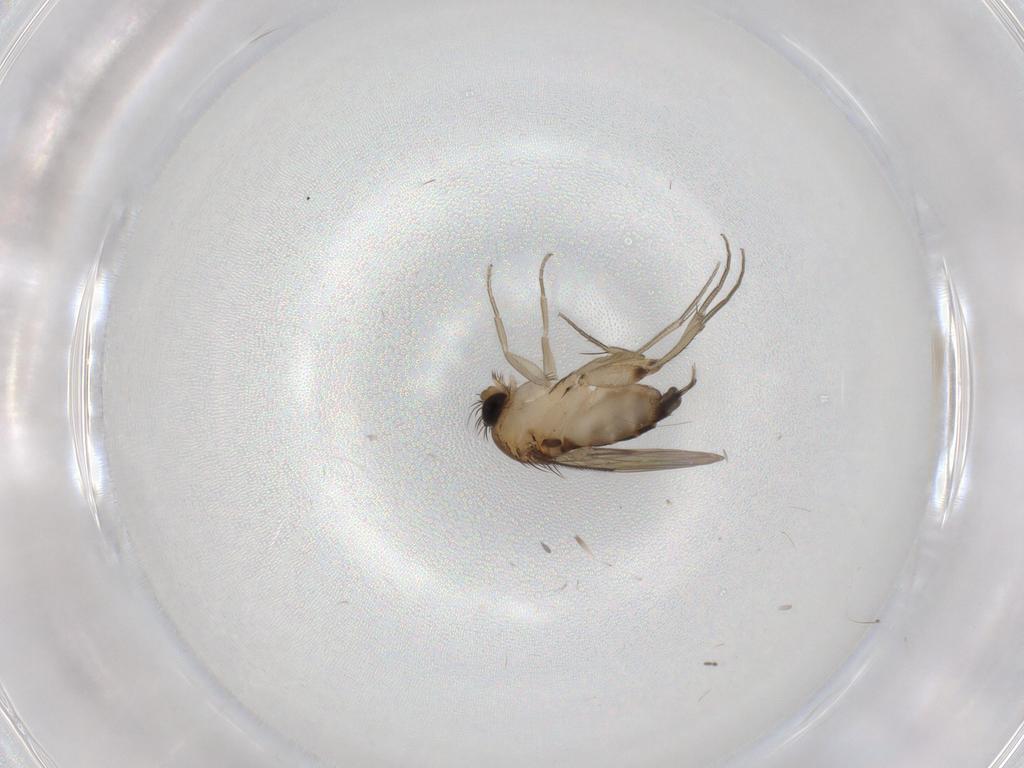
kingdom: Animalia
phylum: Arthropoda
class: Insecta
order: Diptera
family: Phoridae
